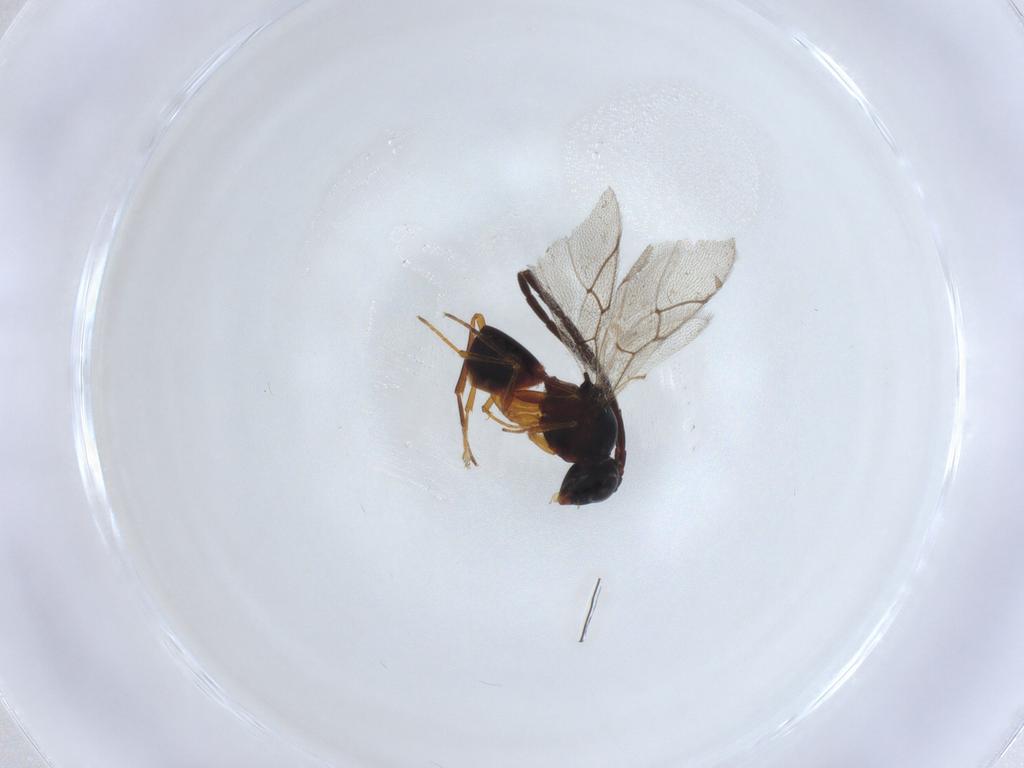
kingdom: Animalia
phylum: Arthropoda
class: Insecta
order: Hymenoptera
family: Figitidae
